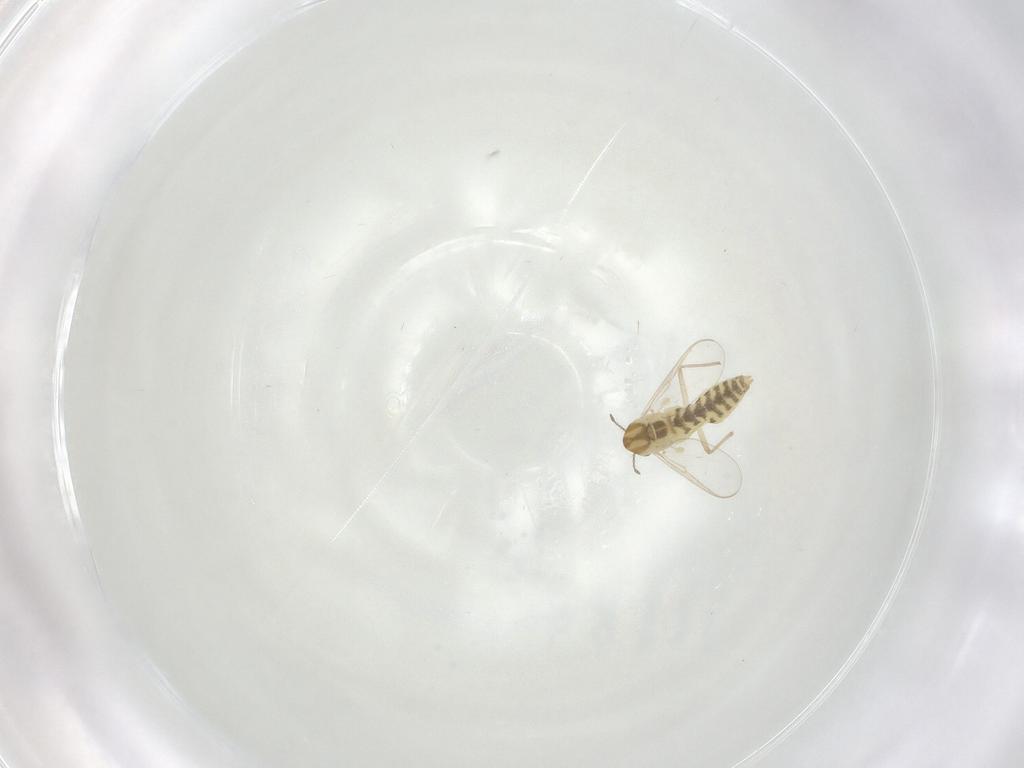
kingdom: Animalia
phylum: Arthropoda
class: Insecta
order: Diptera
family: Chironomidae
